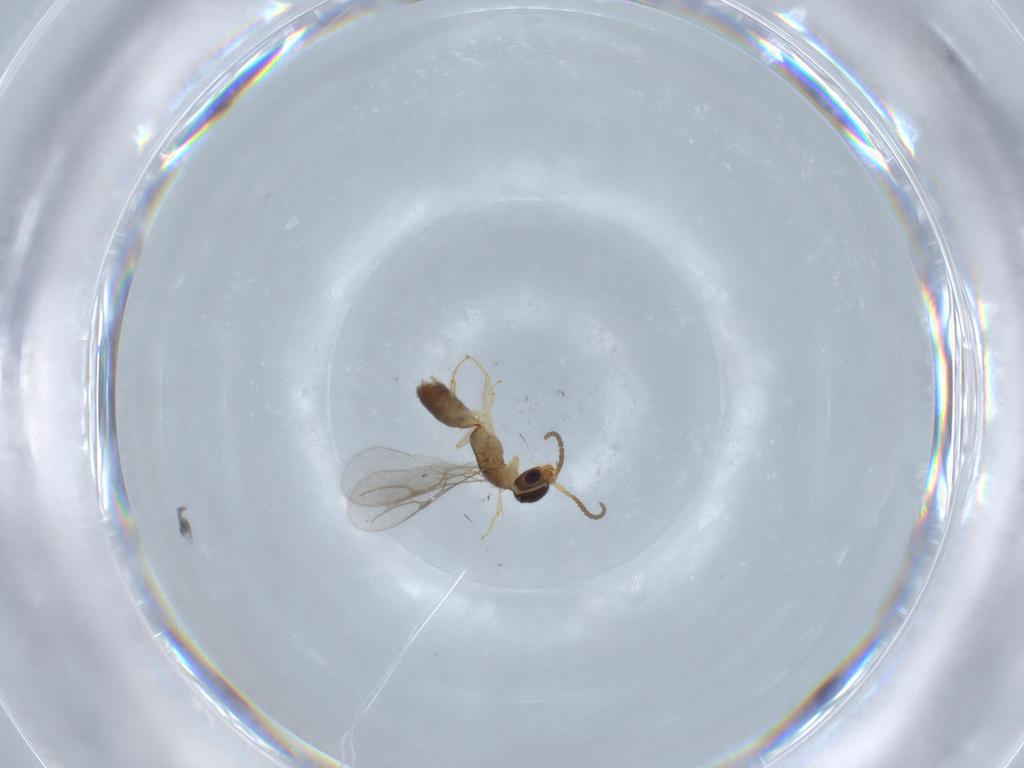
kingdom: Animalia
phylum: Arthropoda
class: Insecta
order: Hymenoptera
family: Bethylidae
